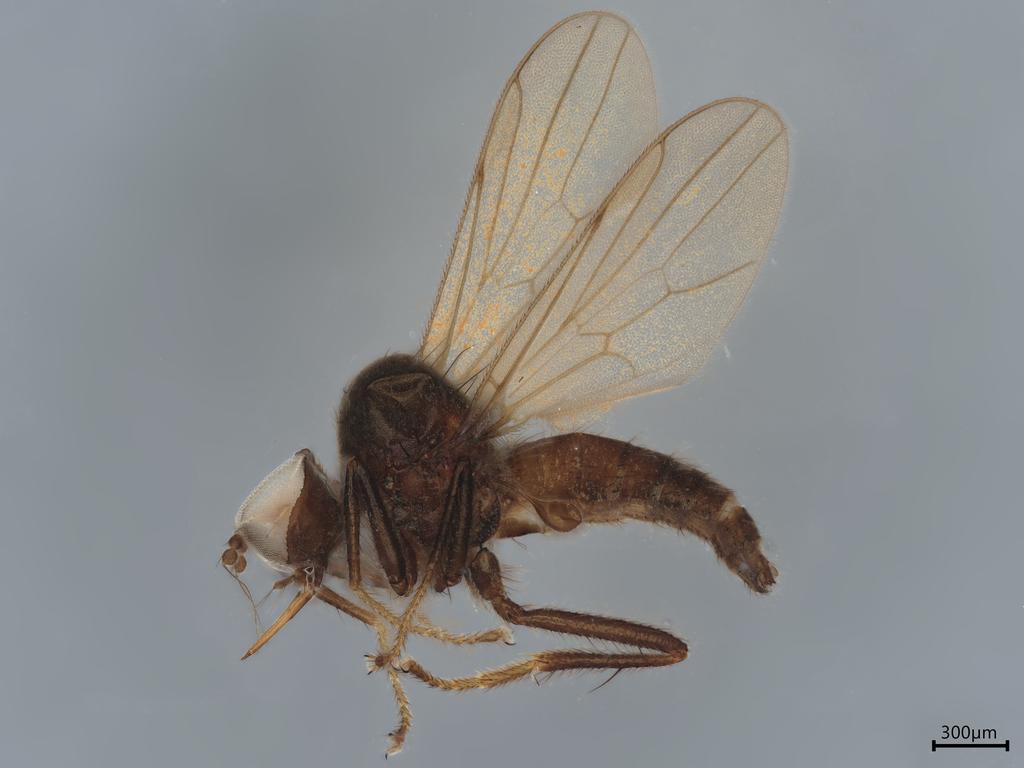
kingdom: Animalia
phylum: Arthropoda
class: Insecta
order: Diptera
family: Hybotidae
